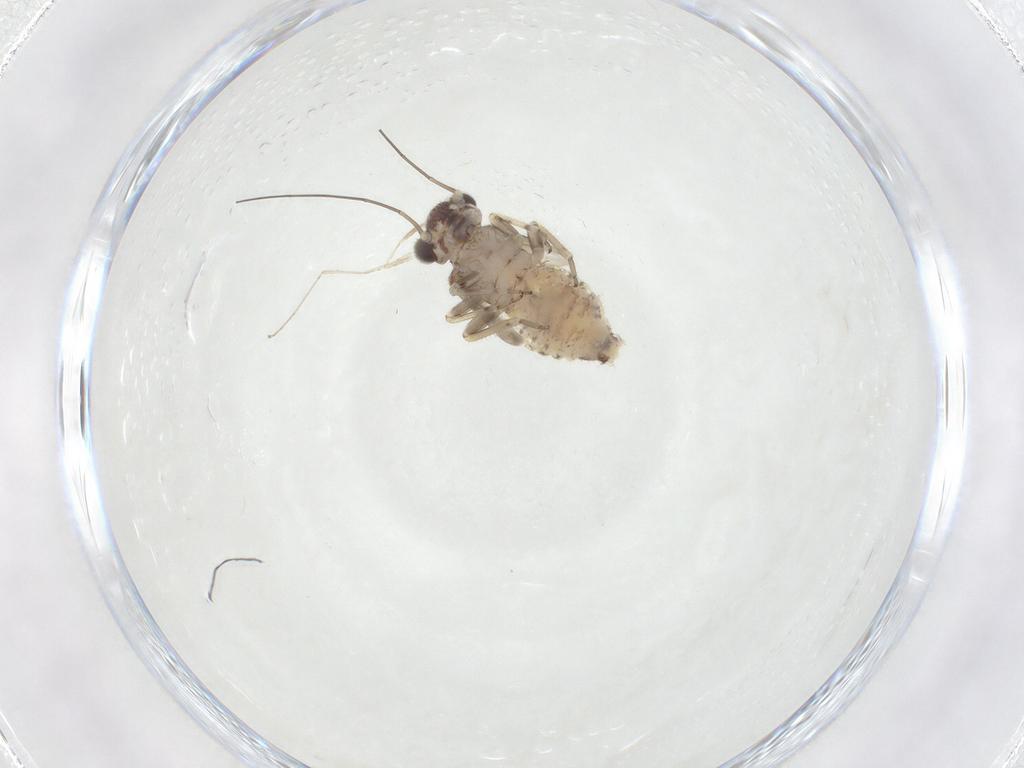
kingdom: Animalia
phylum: Arthropoda
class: Insecta
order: Psocodea
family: Psocidae
